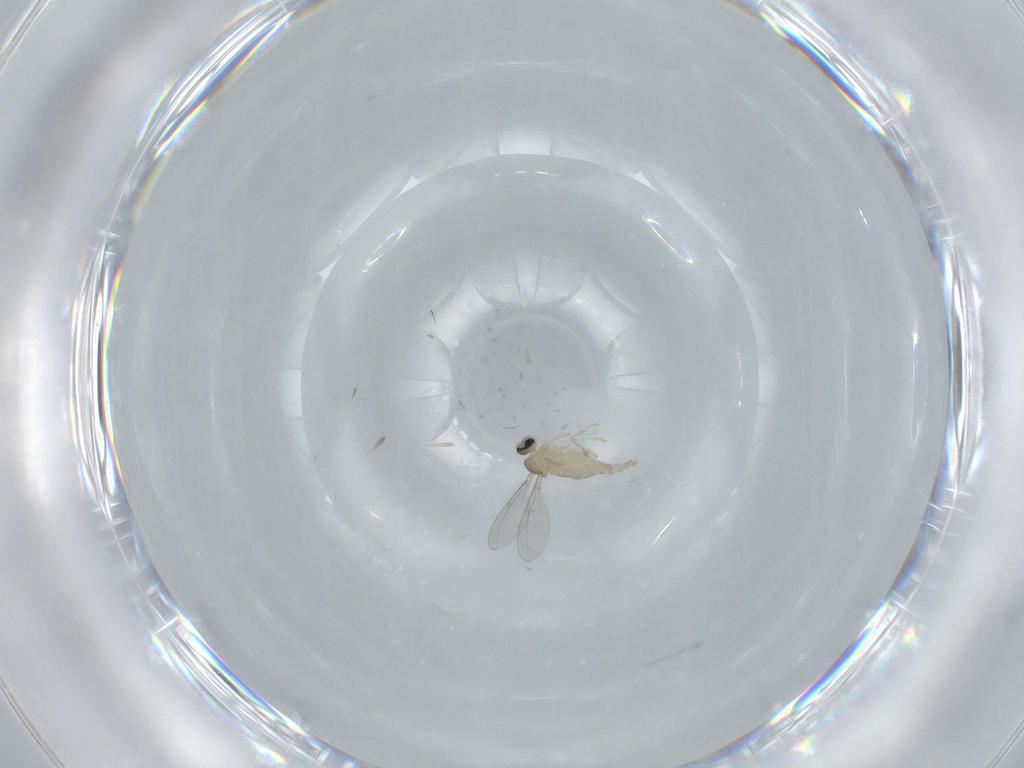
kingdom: Animalia
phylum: Arthropoda
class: Insecta
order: Diptera
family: Cecidomyiidae
